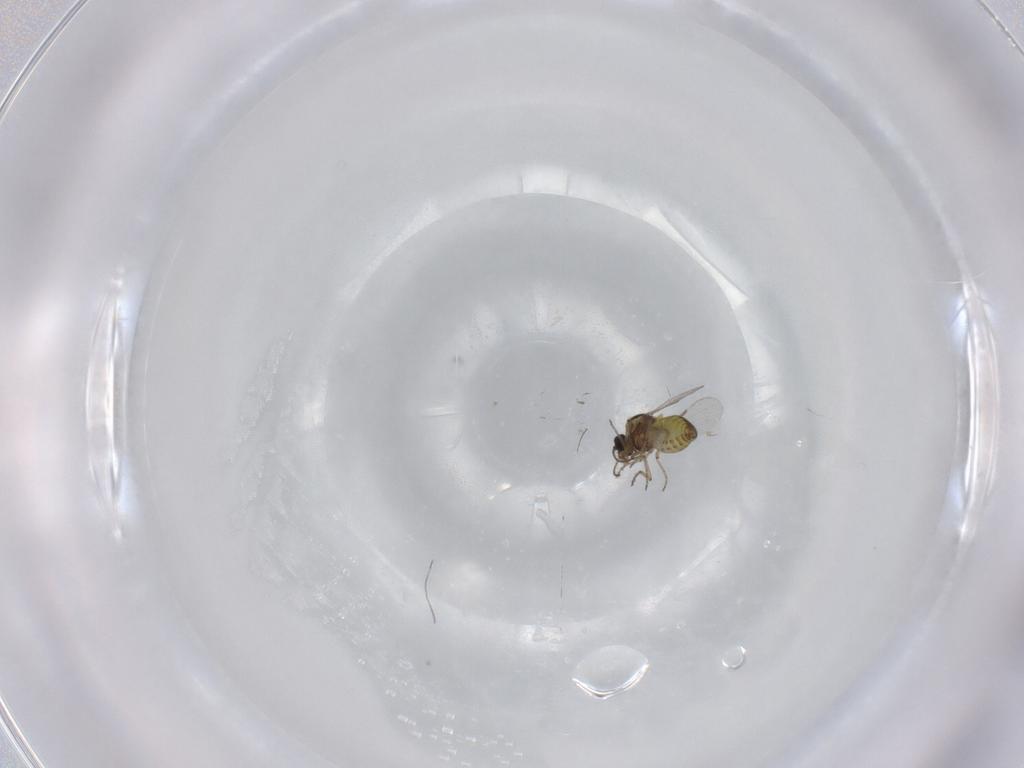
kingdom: Animalia
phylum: Arthropoda
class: Insecta
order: Diptera
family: Ceratopogonidae
